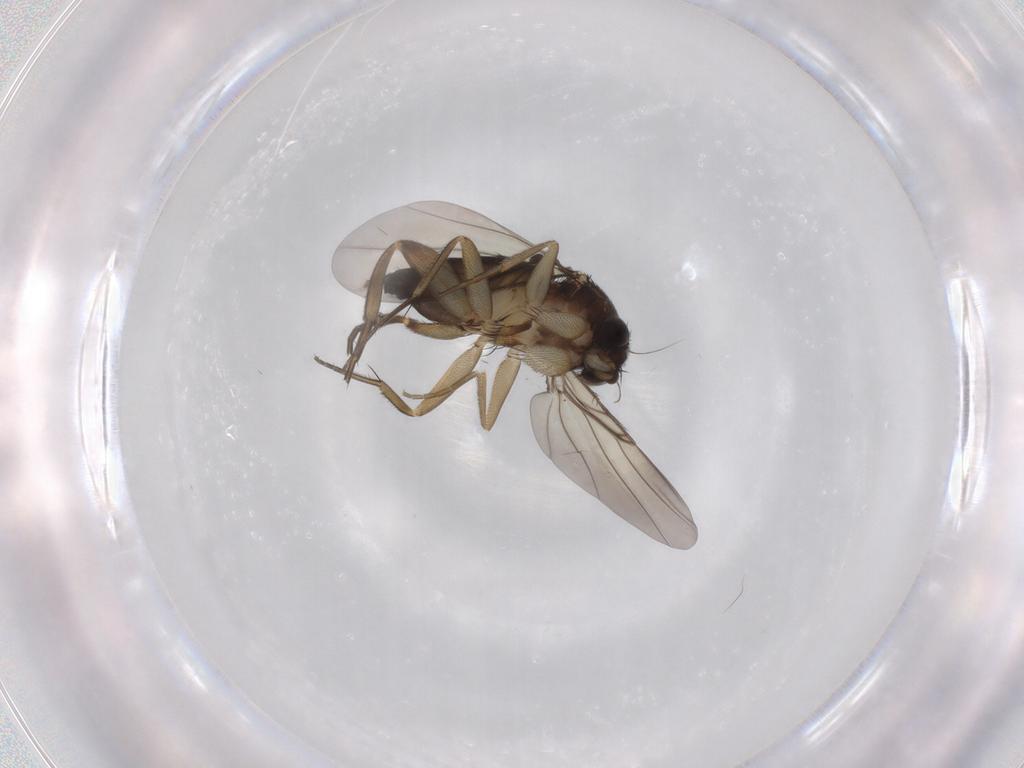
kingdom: Animalia
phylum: Arthropoda
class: Insecta
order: Diptera
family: Phoridae
